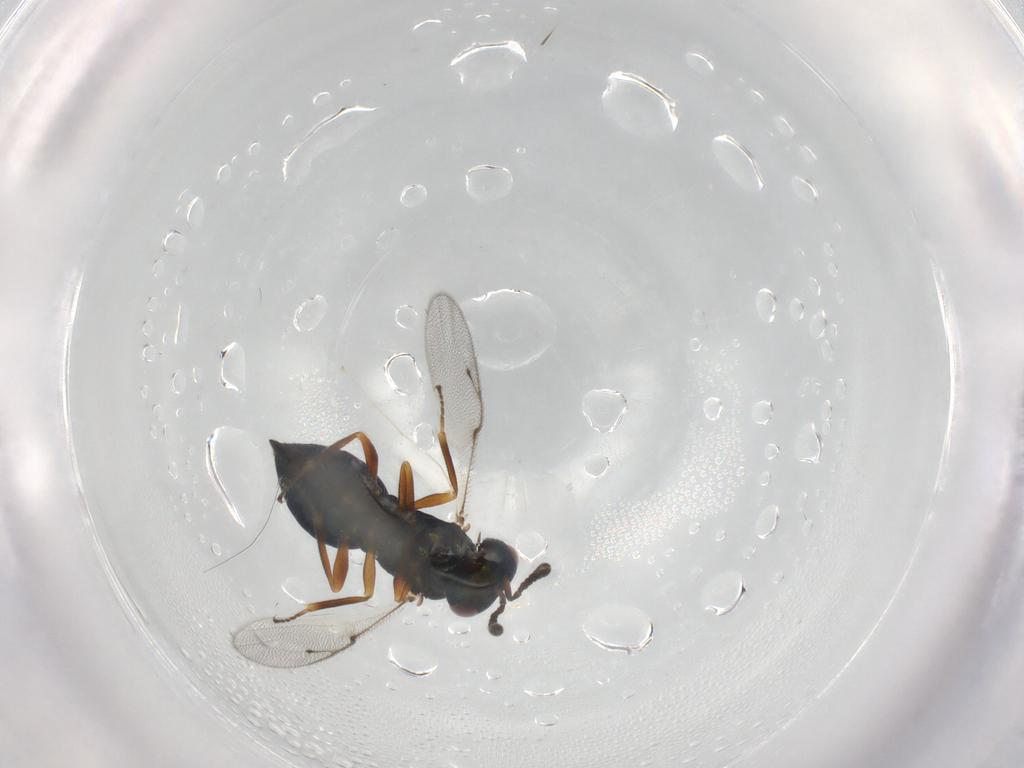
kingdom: Animalia
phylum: Arthropoda
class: Insecta
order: Hymenoptera
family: Pteromalidae
